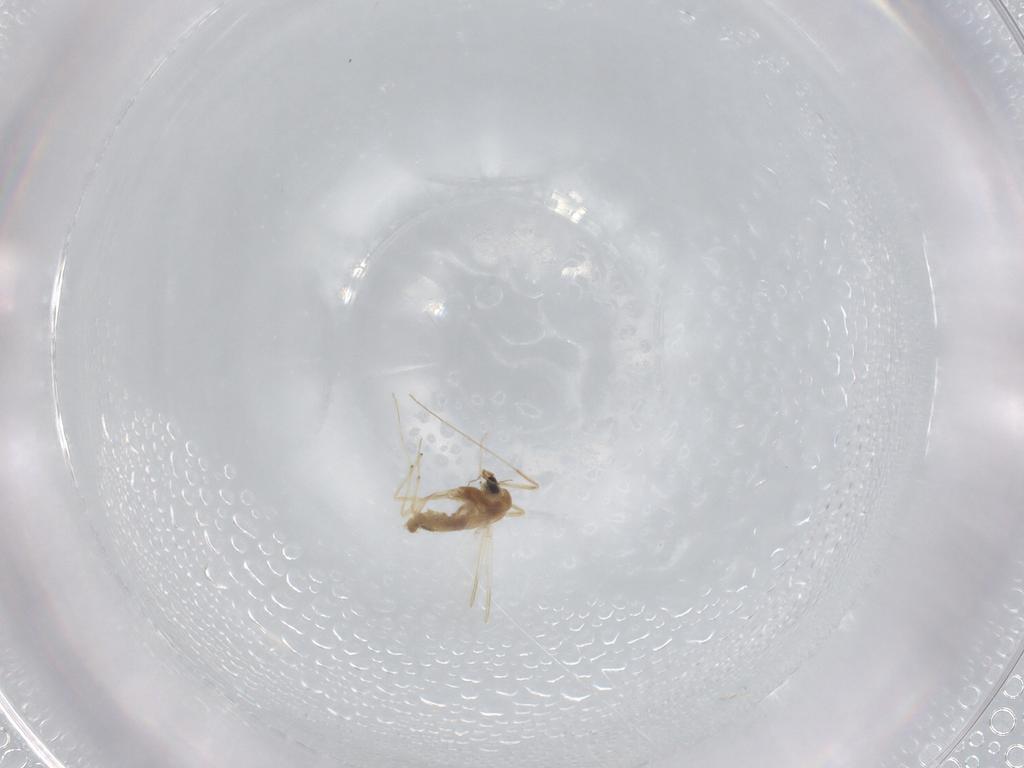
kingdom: Animalia
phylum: Arthropoda
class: Insecta
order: Diptera
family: Chironomidae
